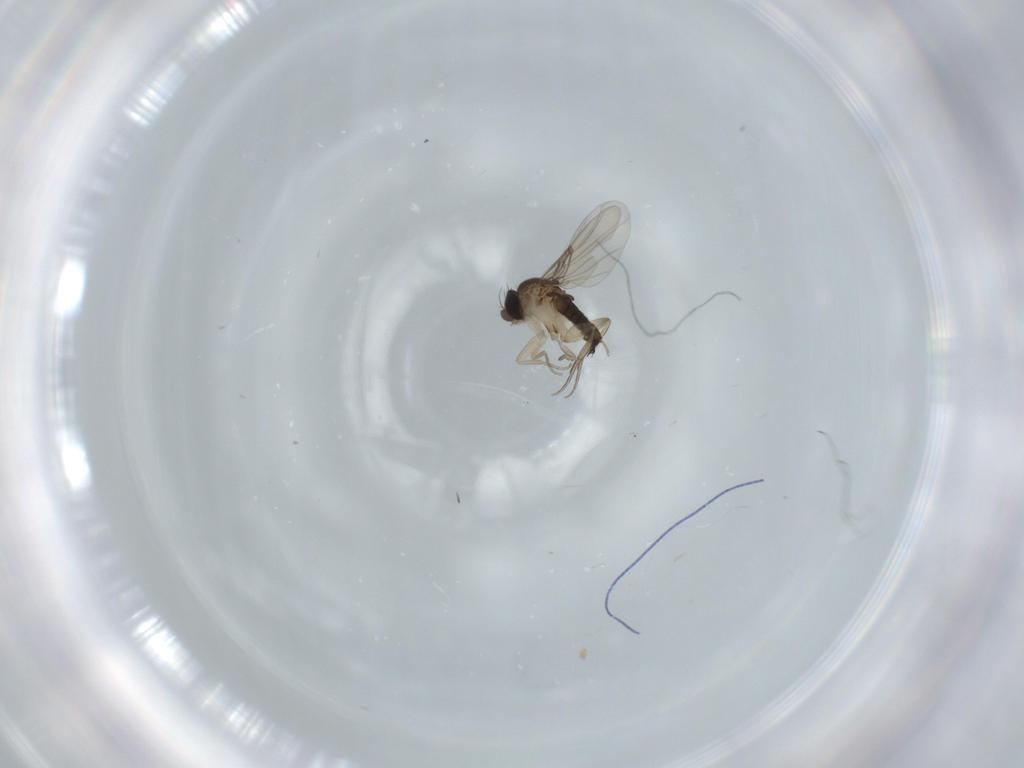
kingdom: Animalia
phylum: Arthropoda
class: Insecta
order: Diptera
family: Phoridae
